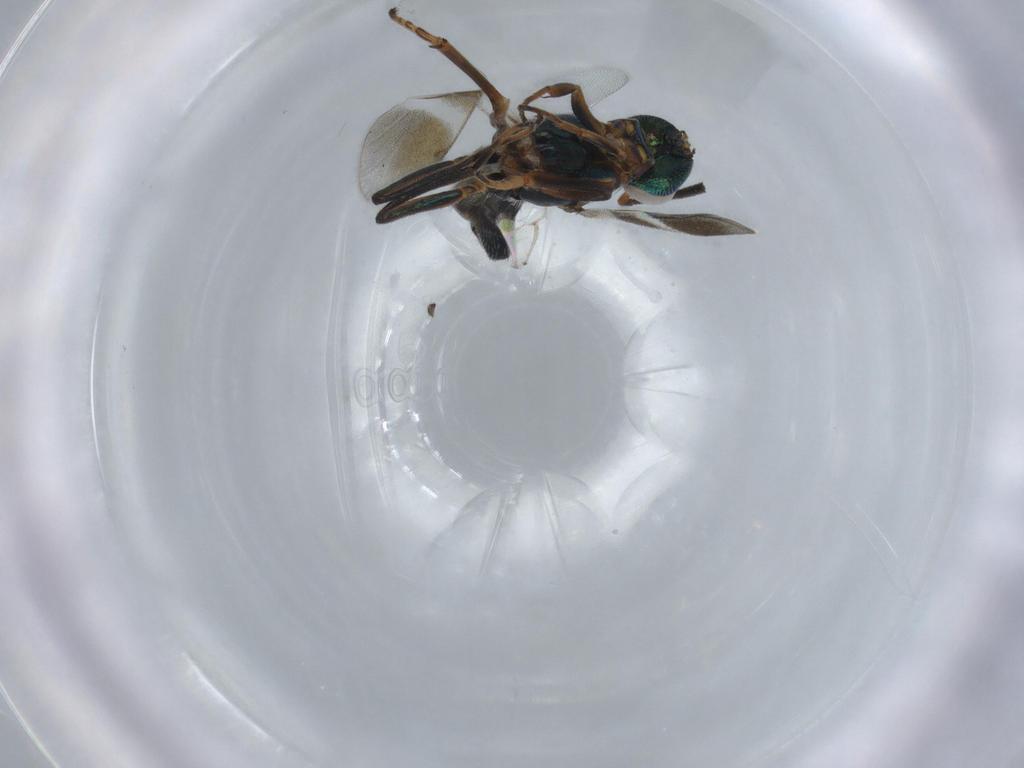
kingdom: Animalia
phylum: Arthropoda
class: Insecta
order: Hymenoptera
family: Eupelmidae
